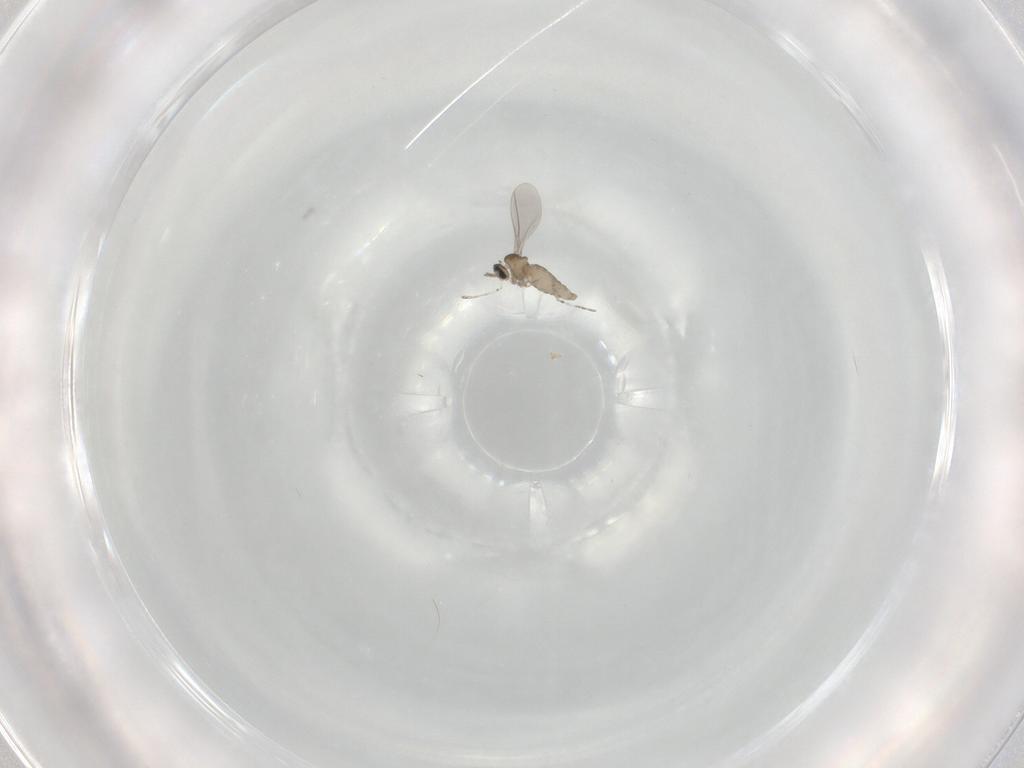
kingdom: Animalia
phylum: Arthropoda
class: Insecta
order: Diptera
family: Cecidomyiidae
